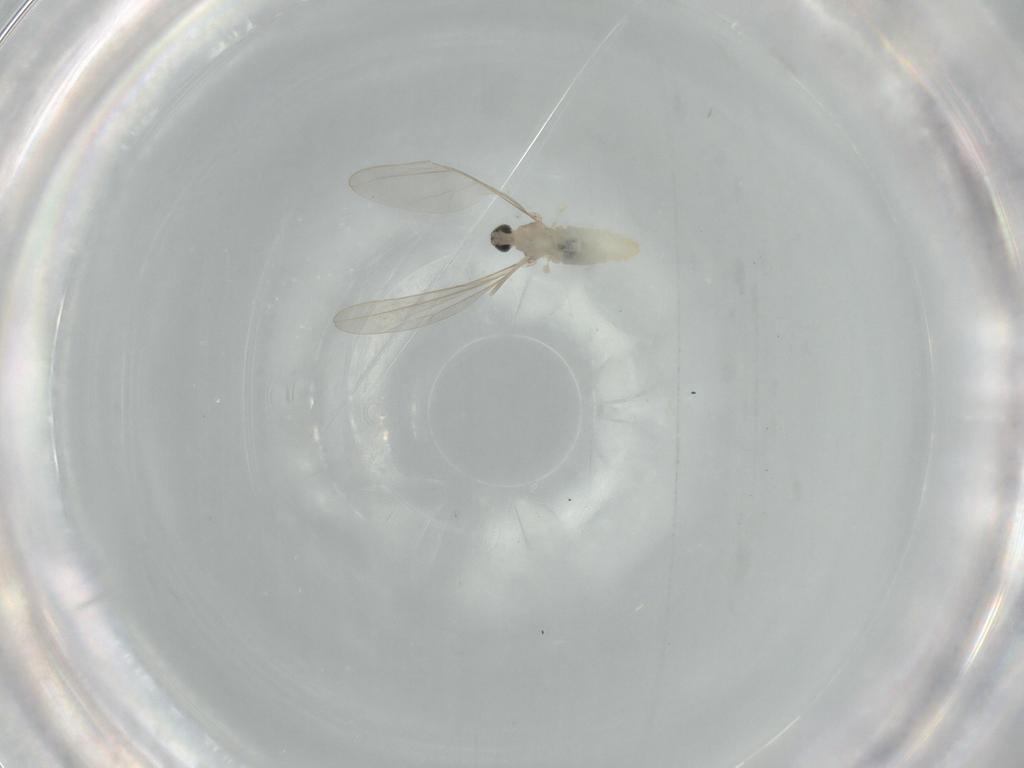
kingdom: Animalia
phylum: Arthropoda
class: Insecta
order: Diptera
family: Cecidomyiidae
